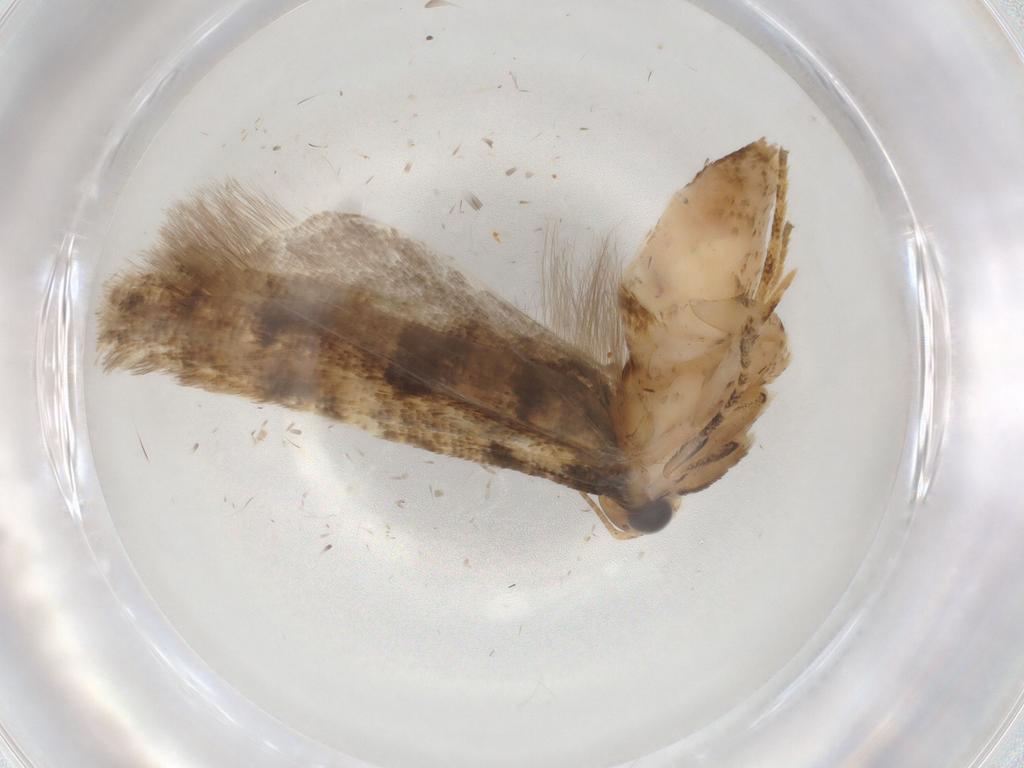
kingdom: Animalia
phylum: Arthropoda
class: Insecta
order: Lepidoptera
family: Gelechiidae
